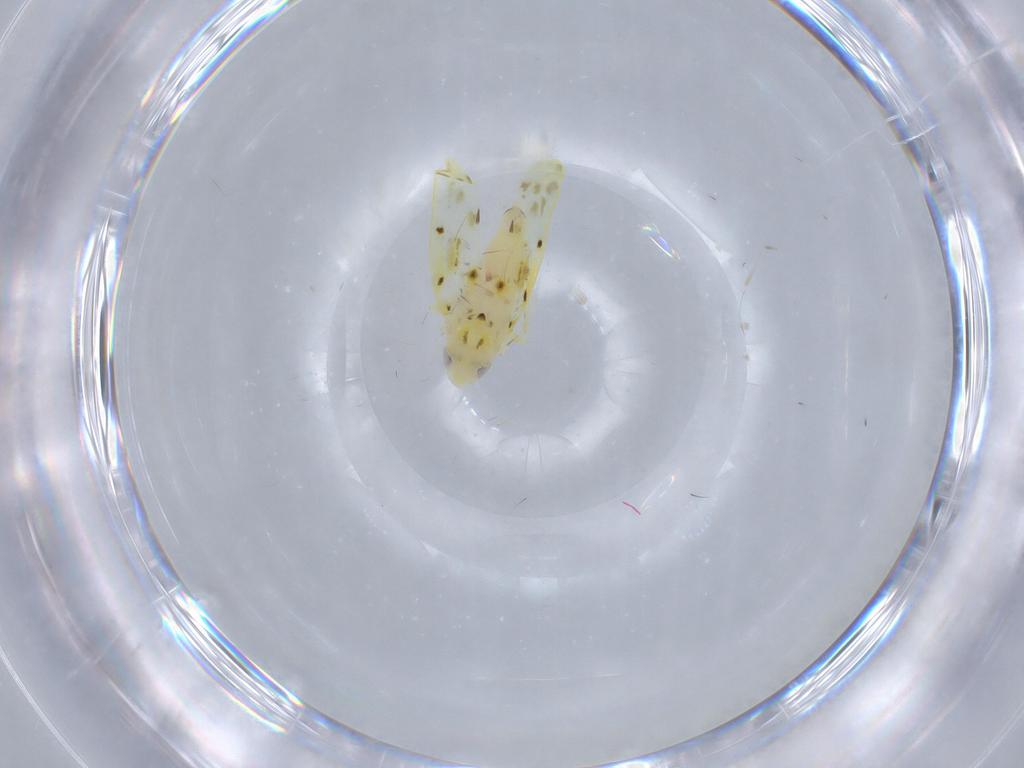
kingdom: Animalia
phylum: Arthropoda
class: Insecta
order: Hemiptera
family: Cicadellidae
